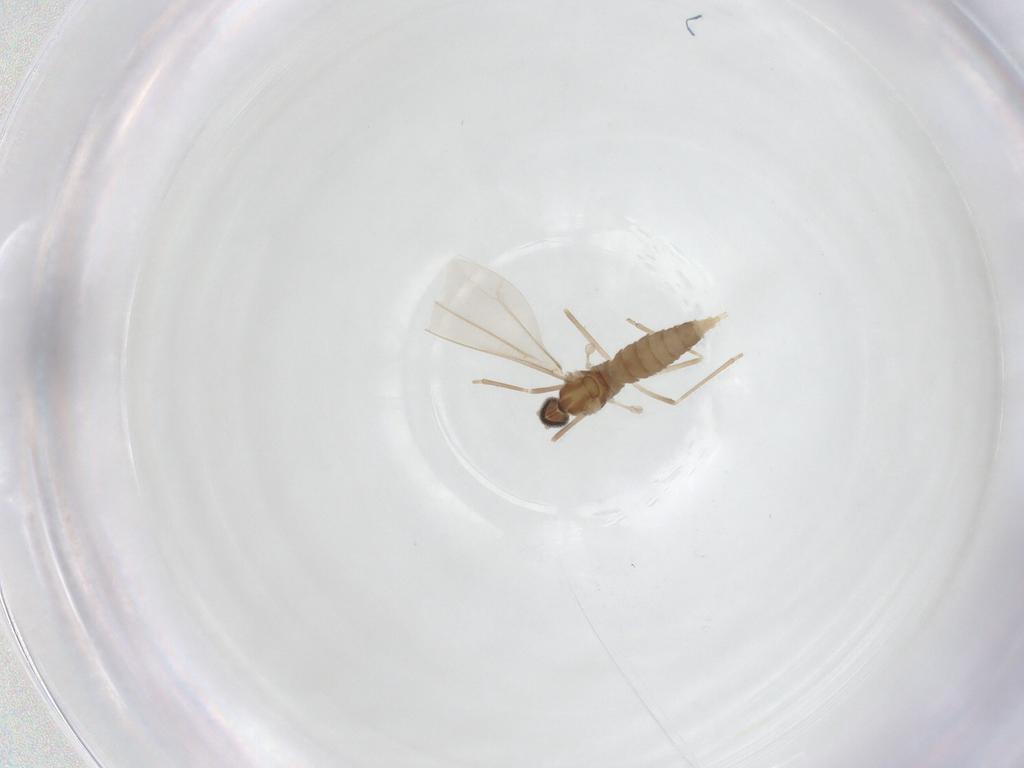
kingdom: Animalia
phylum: Arthropoda
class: Insecta
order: Diptera
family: Cecidomyiidae
